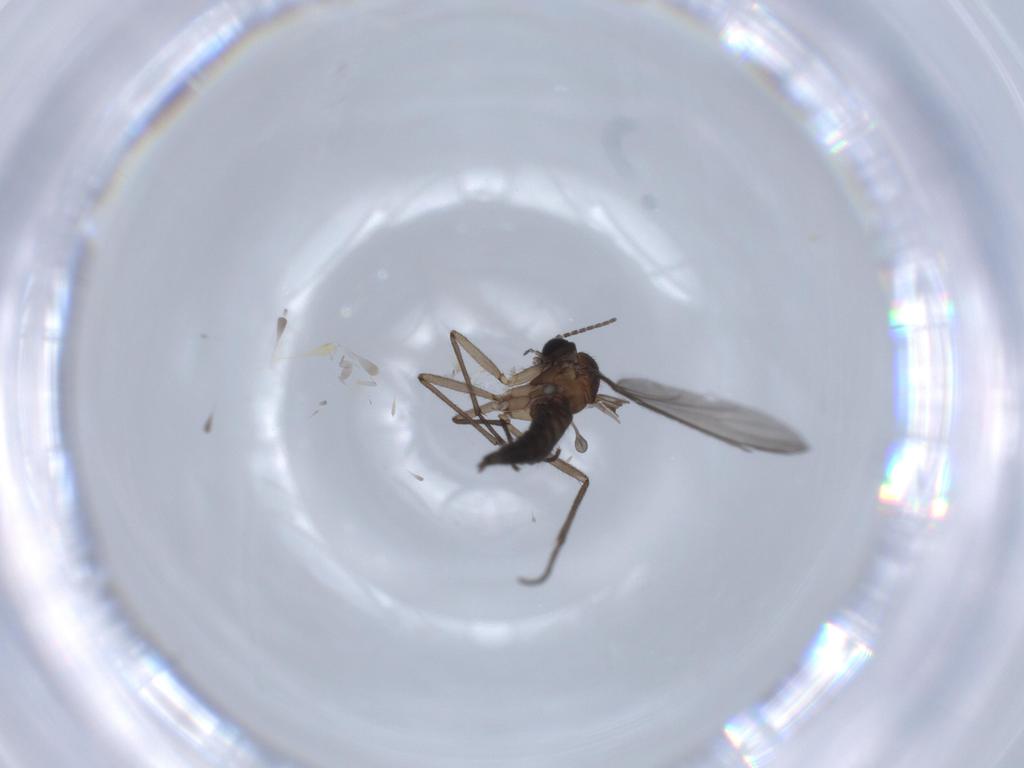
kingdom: Animalia
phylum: Arthropoda
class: Insecta
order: Diptera
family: Sciaridae
